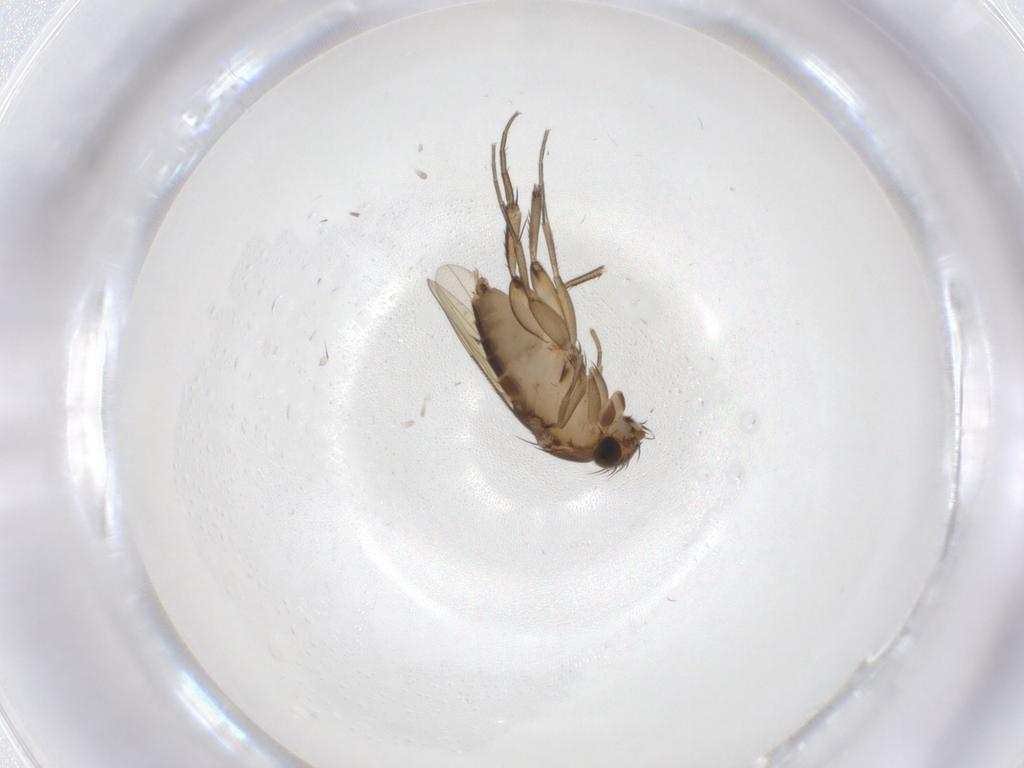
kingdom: Animalia
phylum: Arthropoda
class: Insecta
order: Diptera
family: Phoridae
